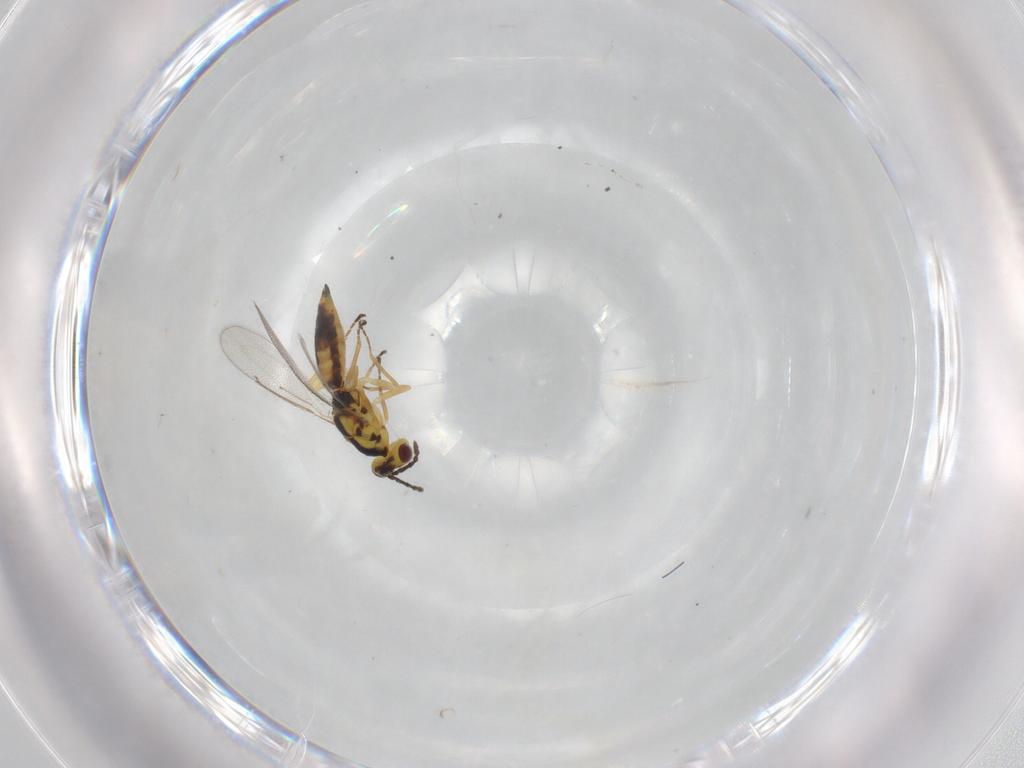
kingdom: Animalia
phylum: Arthropoda
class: Insecta
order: Hymenoptera
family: Eulophidae
